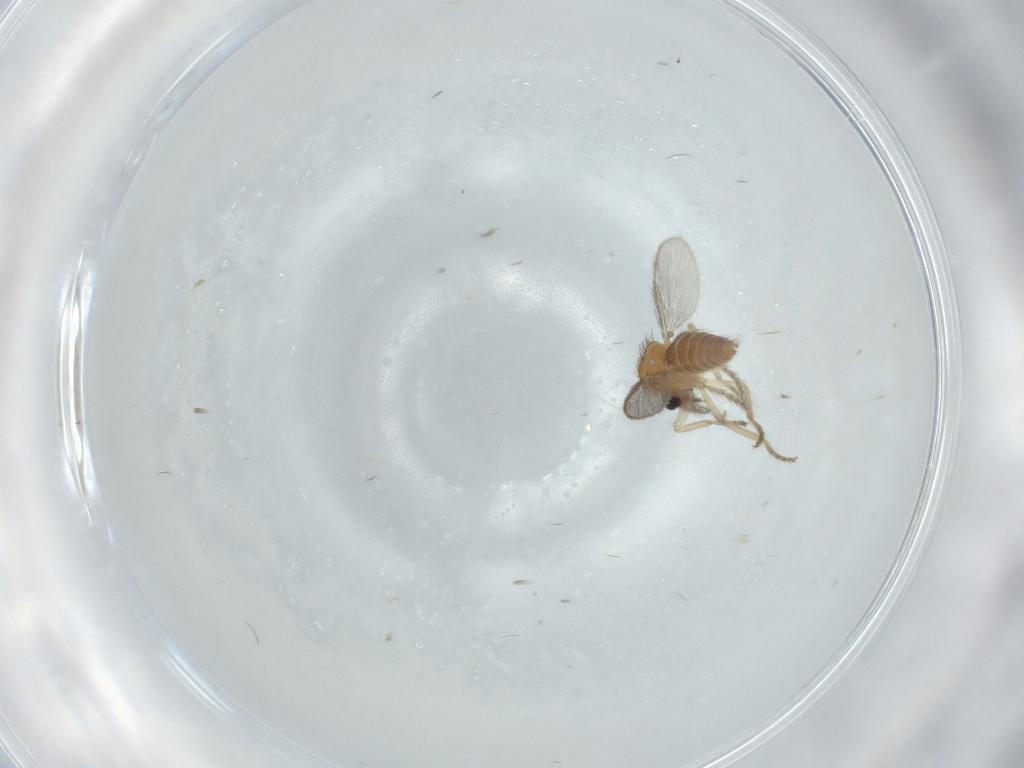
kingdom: Animalia
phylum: Arthropoda
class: Insecta
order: Diptera
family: Ceratopogonidae
